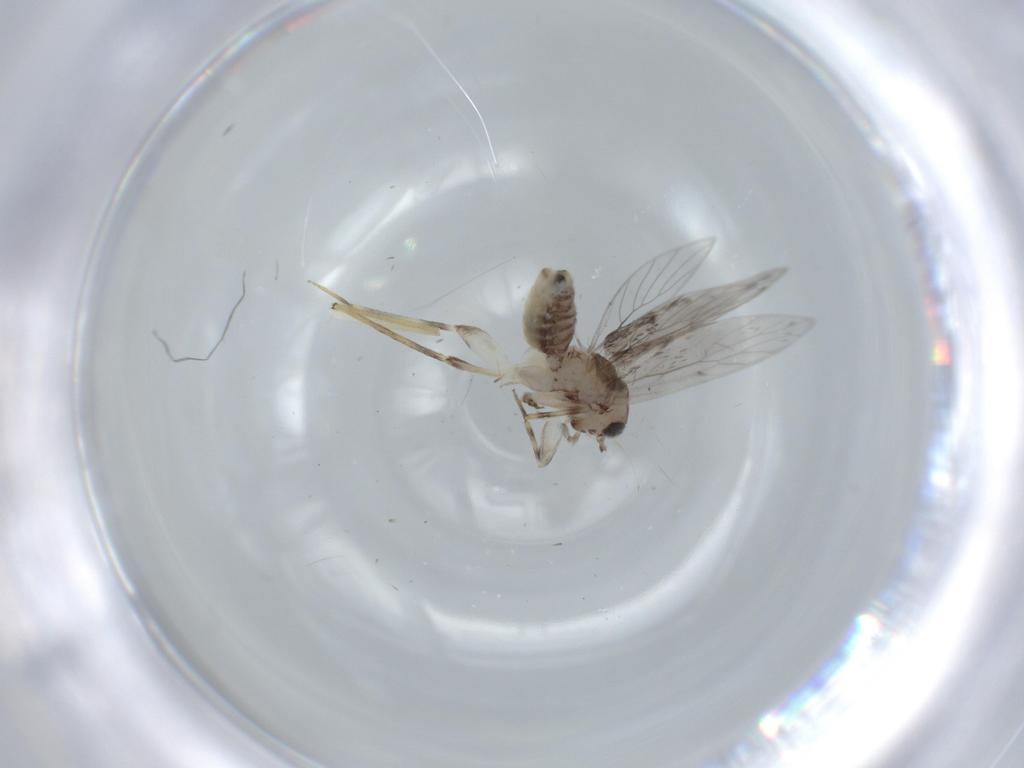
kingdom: Animalia
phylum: Arthropoda
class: Insecta
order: Psocodea
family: Lepidopsocidae
